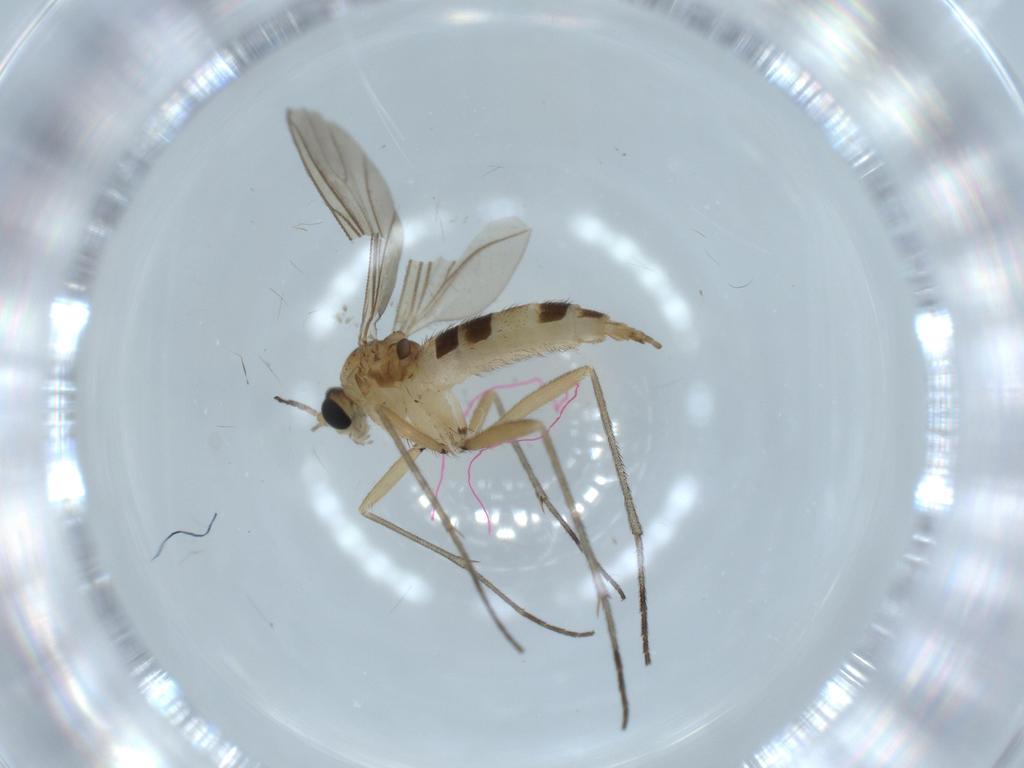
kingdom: Animalia
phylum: Arthropoda
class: Insecta
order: Diptera
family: Sciaridae
